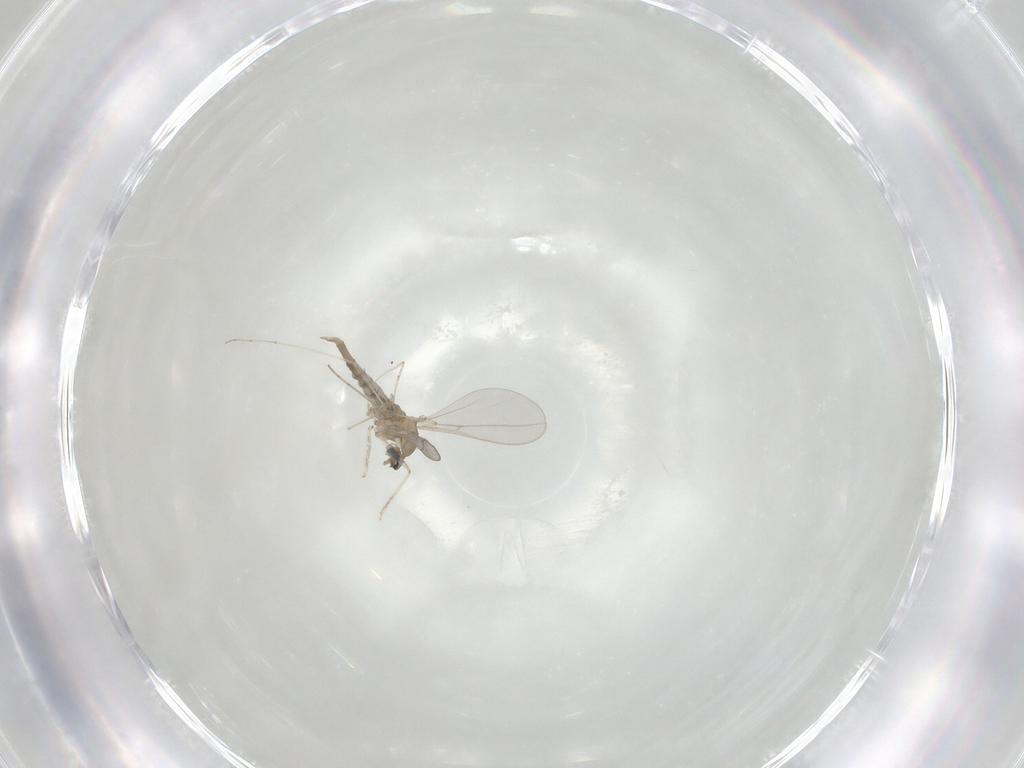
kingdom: Animalia
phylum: Arthropoda
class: Insecta
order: Diptera
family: Cecidomyiidae
